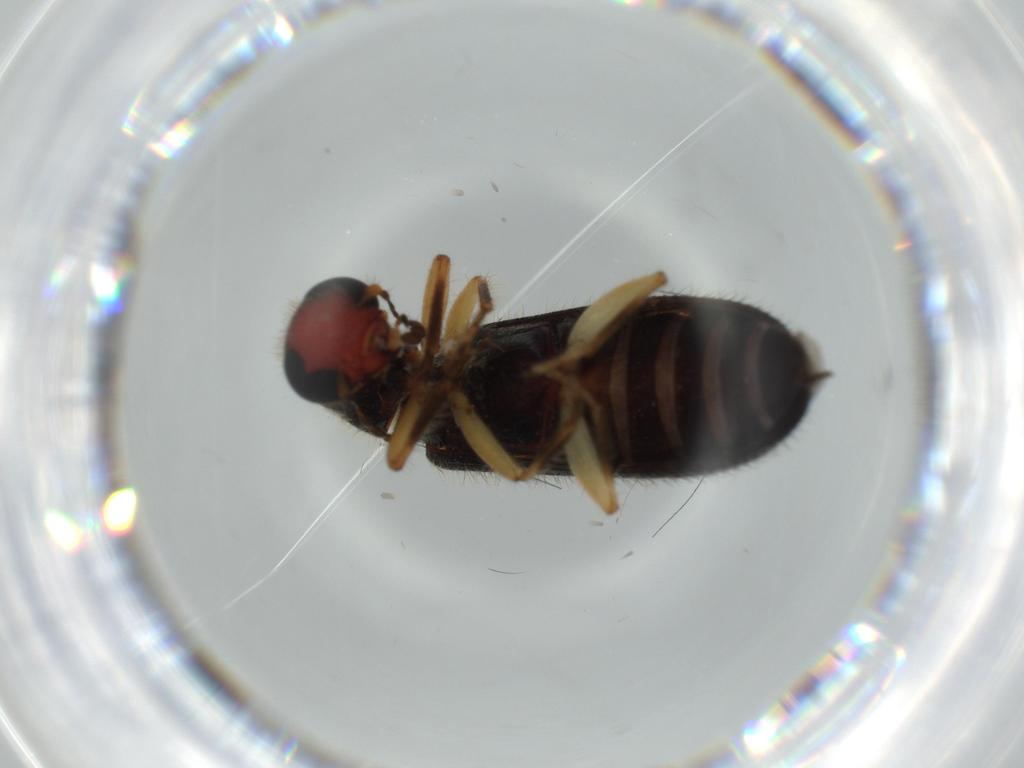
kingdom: Animalia
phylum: Arthropoda
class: Insecta
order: Coleoptera
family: Cleridae
